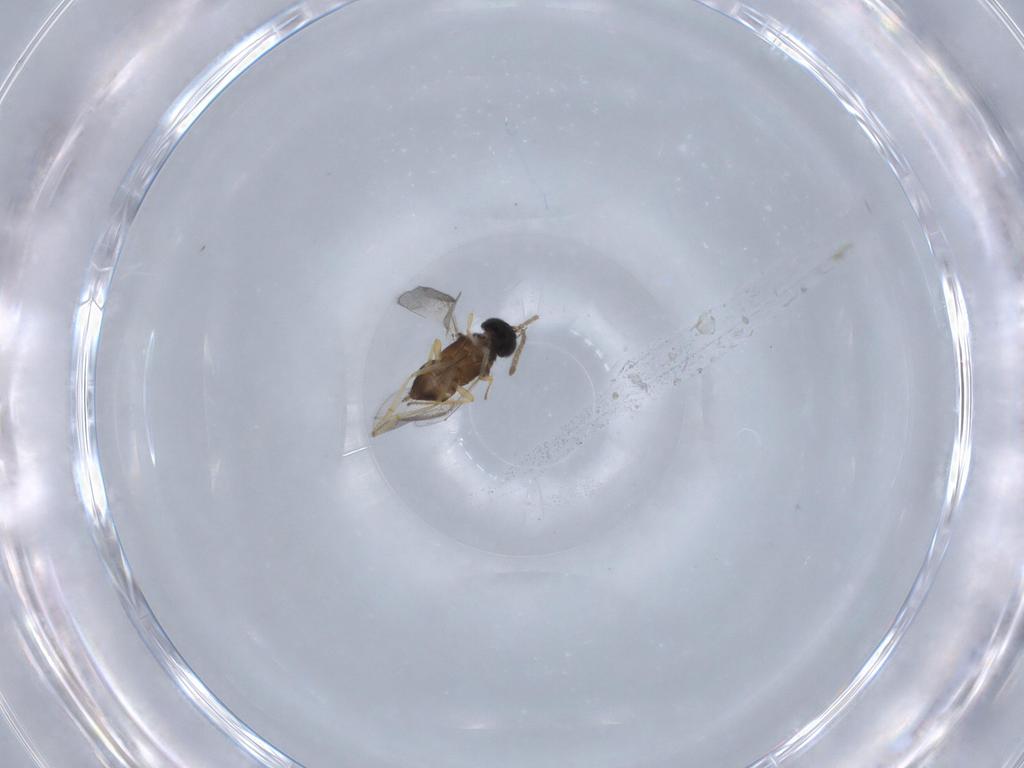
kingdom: Animalia
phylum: Arthropoda
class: Insecta
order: Hymenoptera
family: Encyrtidae
